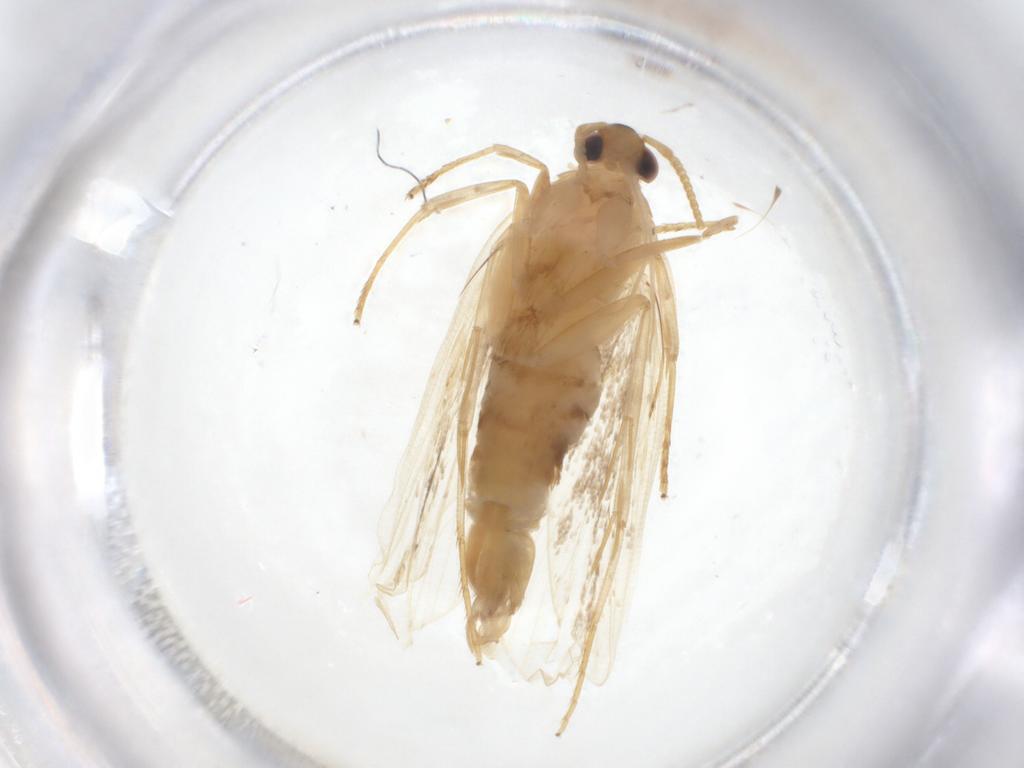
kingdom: Animalia
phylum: Arthropoda
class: Insecta
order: Lepidoptera
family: Lecithoceridae
